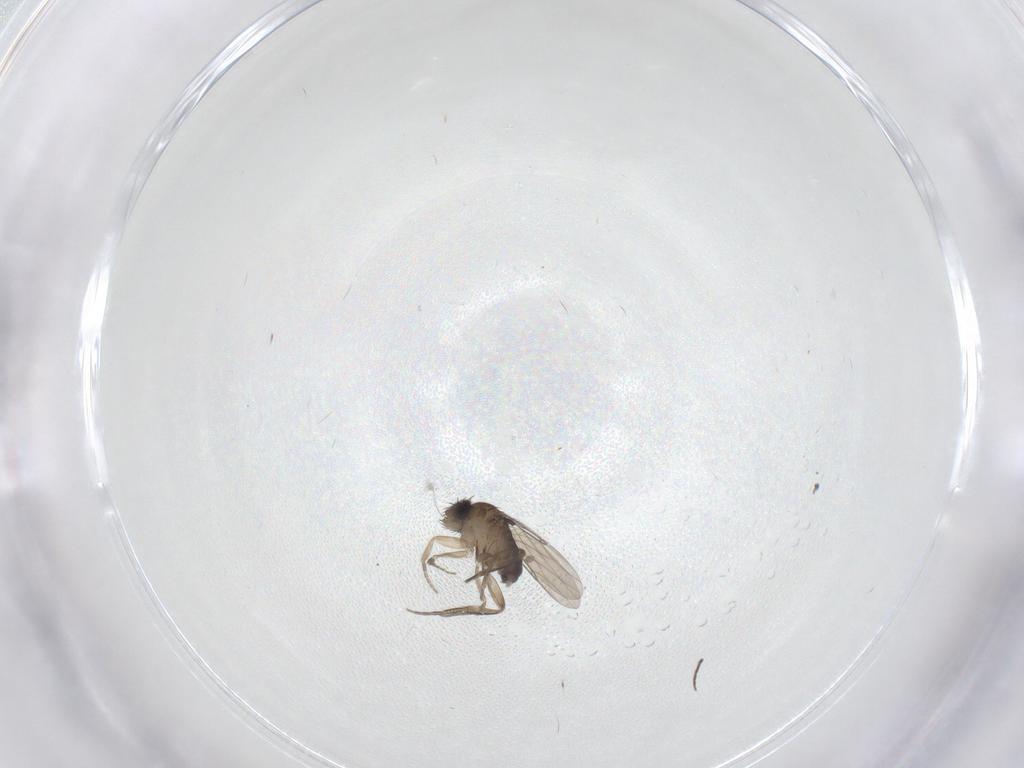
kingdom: Animalia
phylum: Arthropoda
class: Insecta
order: Diptera
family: Phoridae
